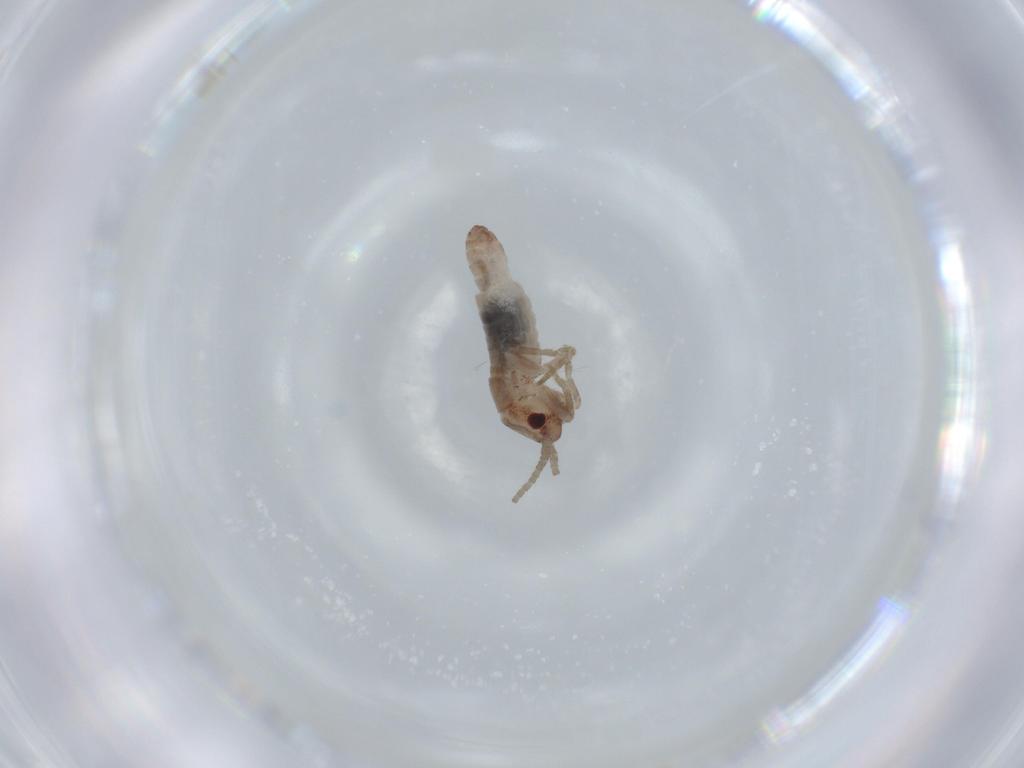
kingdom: Animalia
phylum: Arthropoda
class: Insecta
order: Orthoptera
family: Mogoplistidae
